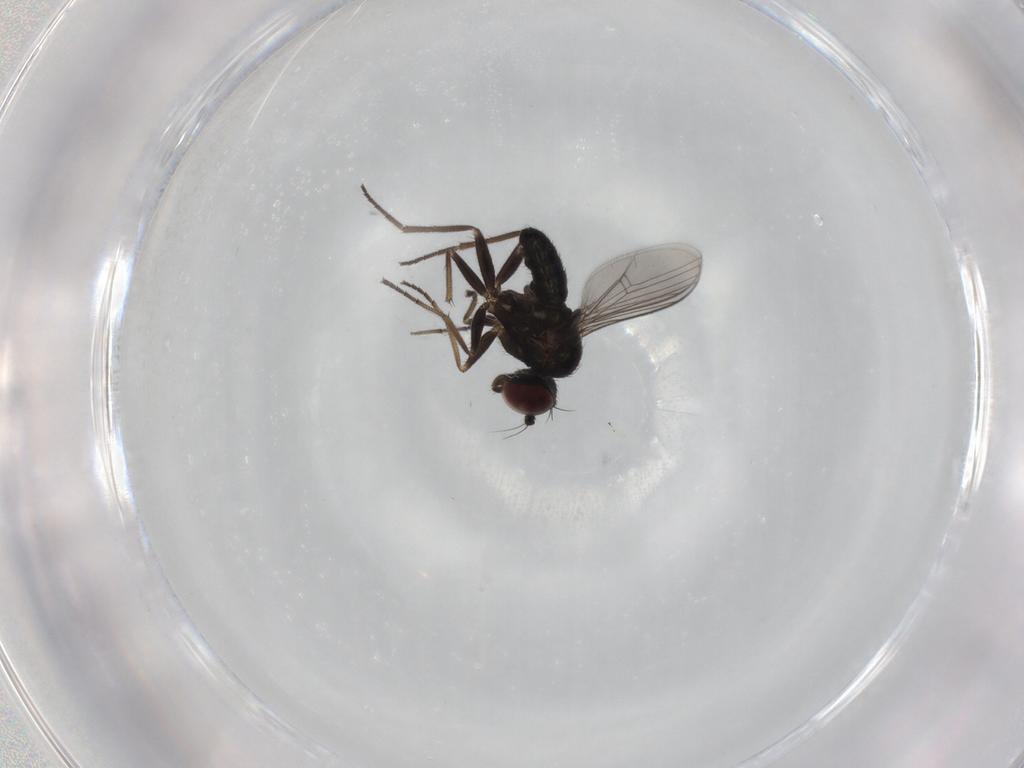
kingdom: Animalia
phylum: Arthropoda
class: Insecta
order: Diptera
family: Dolichopodidae
